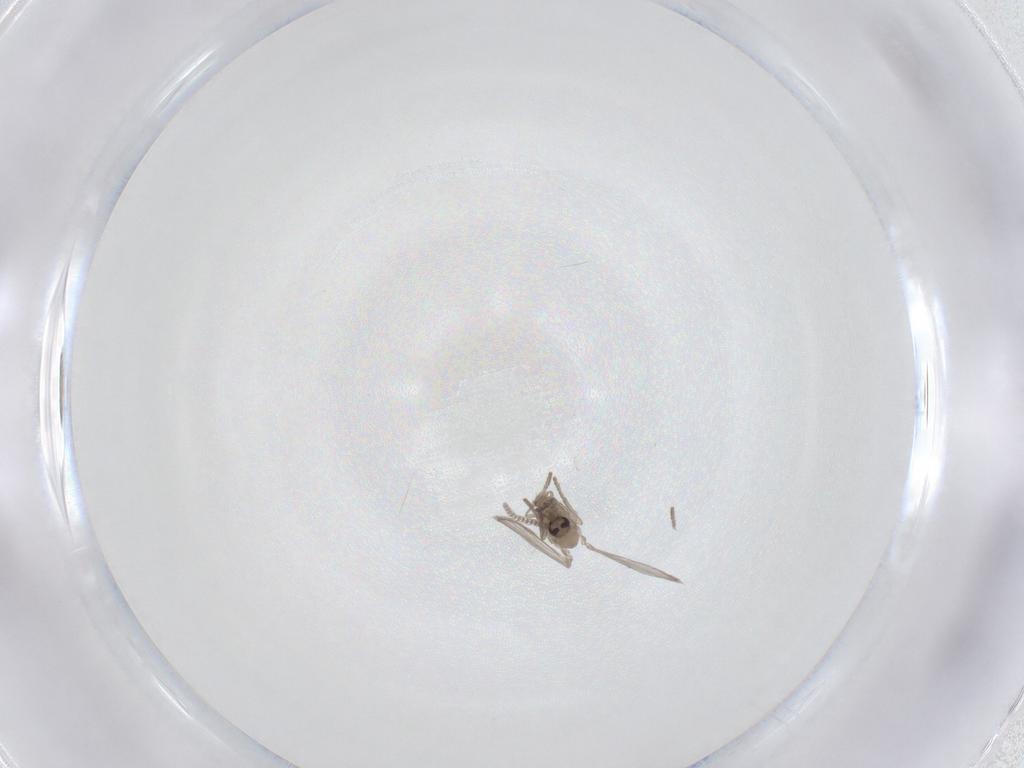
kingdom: Animalia
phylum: Arthropoda
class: Insecta
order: Diptera
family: Psychodidae
